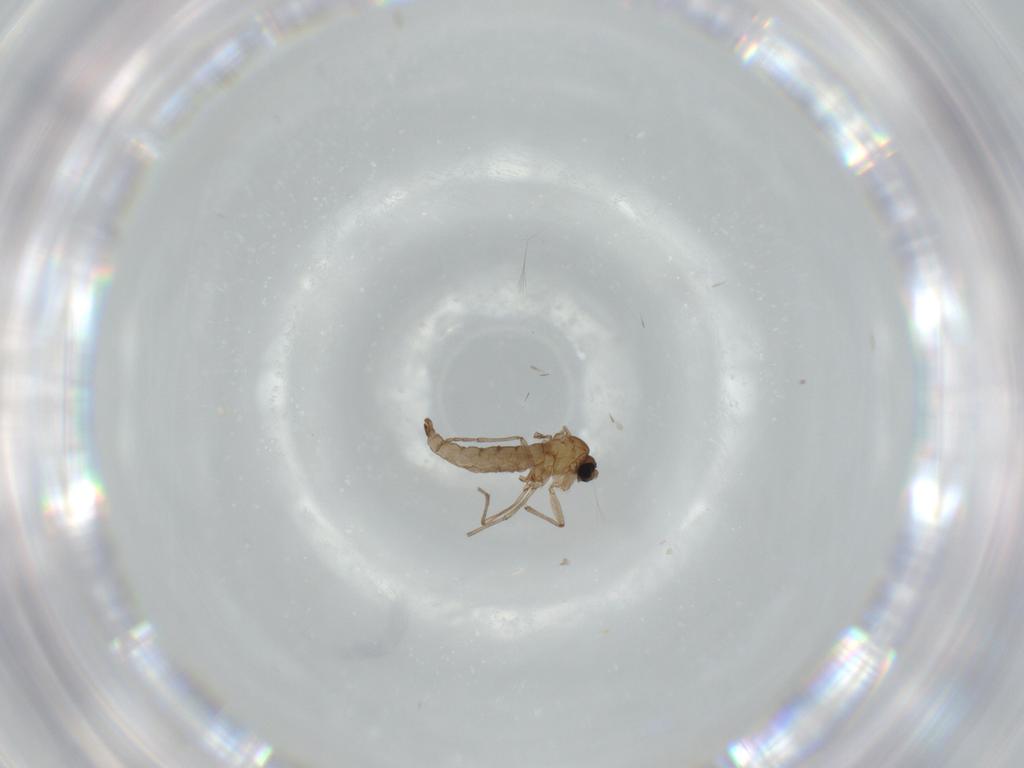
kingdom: Animalia
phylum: Arthropoda
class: Insecta
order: Diptera
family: Sciaridae
